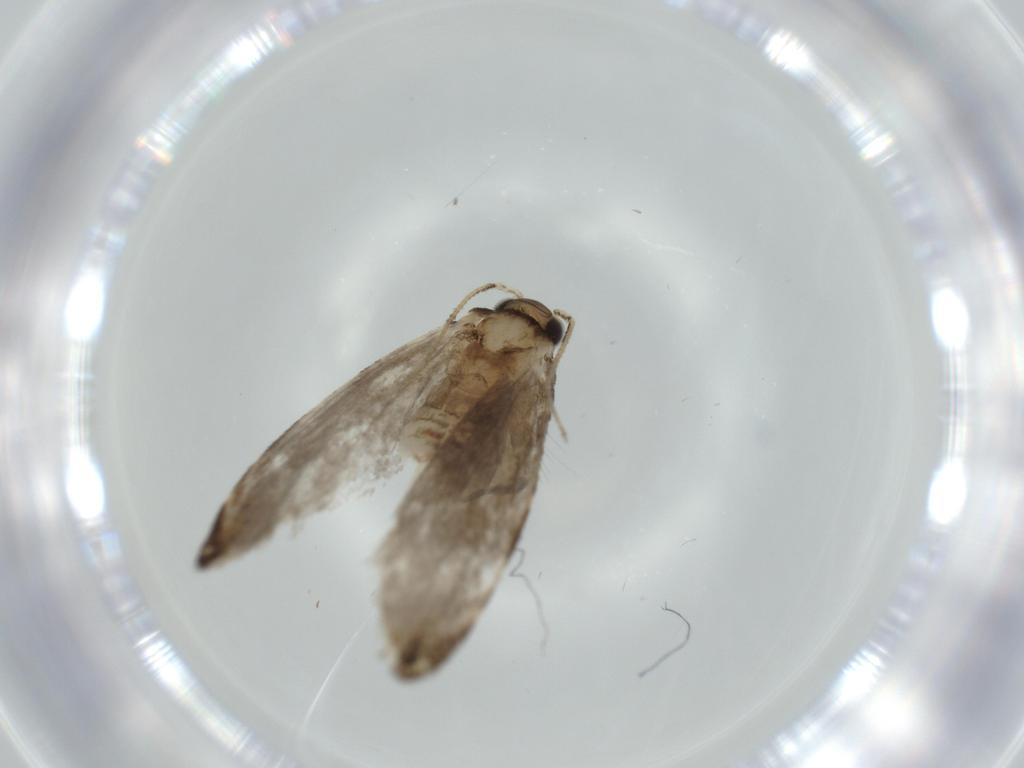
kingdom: Animalia
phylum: Arthropoda
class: Insecta
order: Lepidoptera
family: Tineidae
